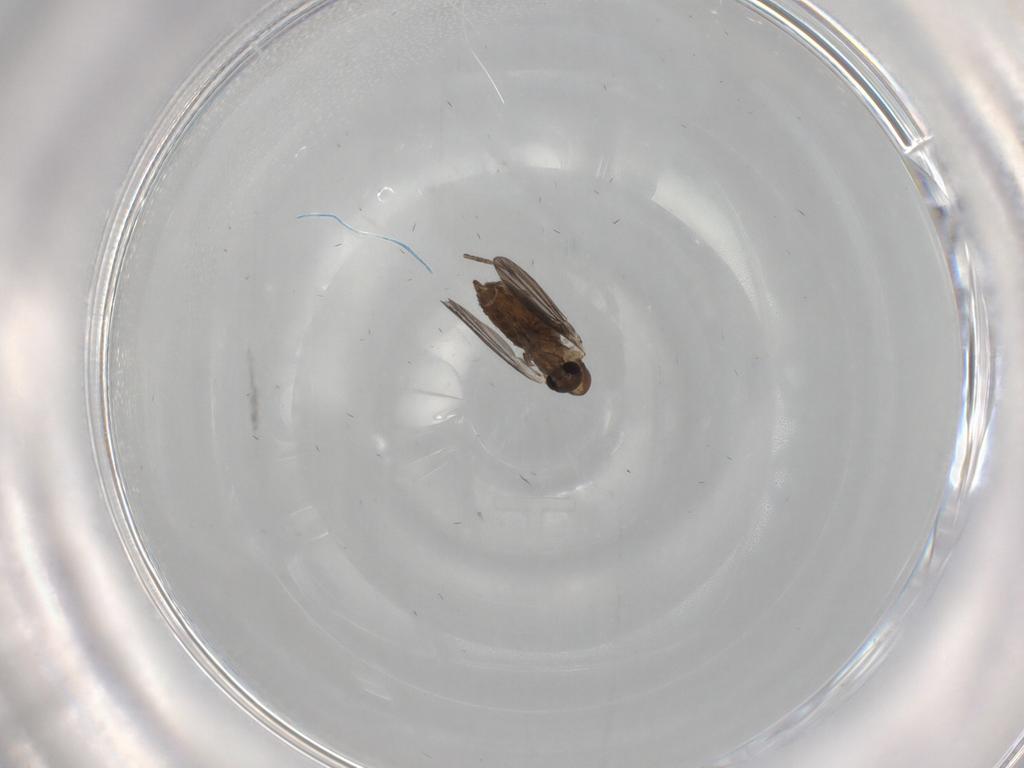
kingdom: Animalia
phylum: Arthropoda
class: Insecta
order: Diptera
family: Psychodidae
